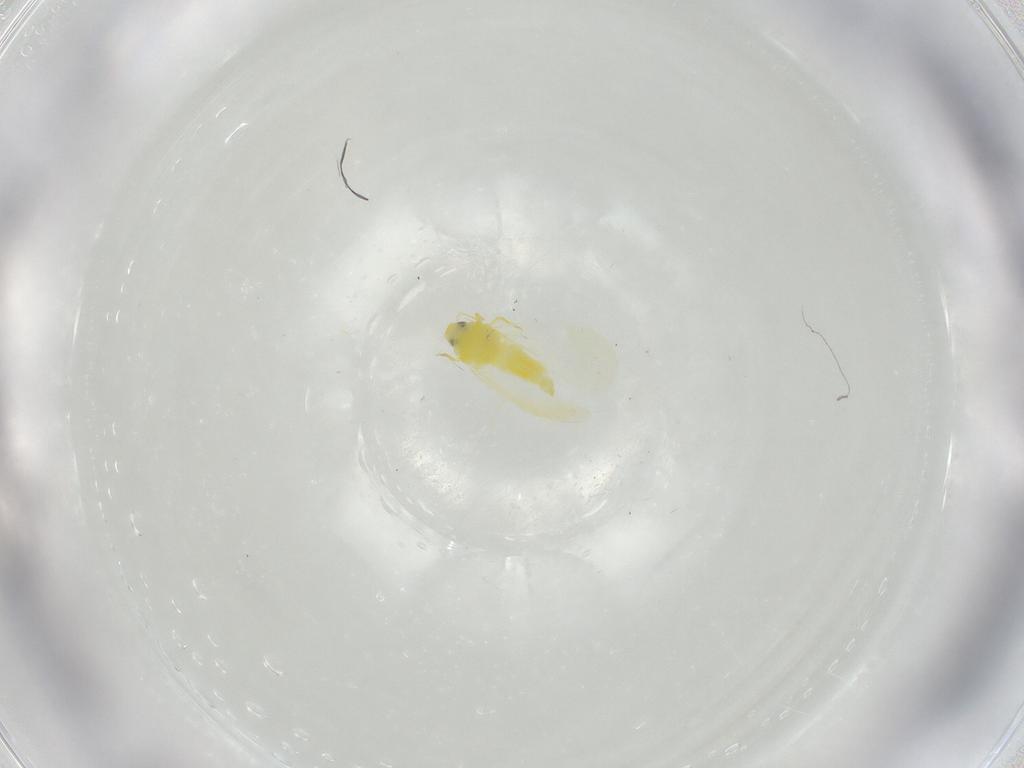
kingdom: Animalia
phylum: Arthropoda
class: Insecta
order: Hemiptera
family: Aleyrodidae
